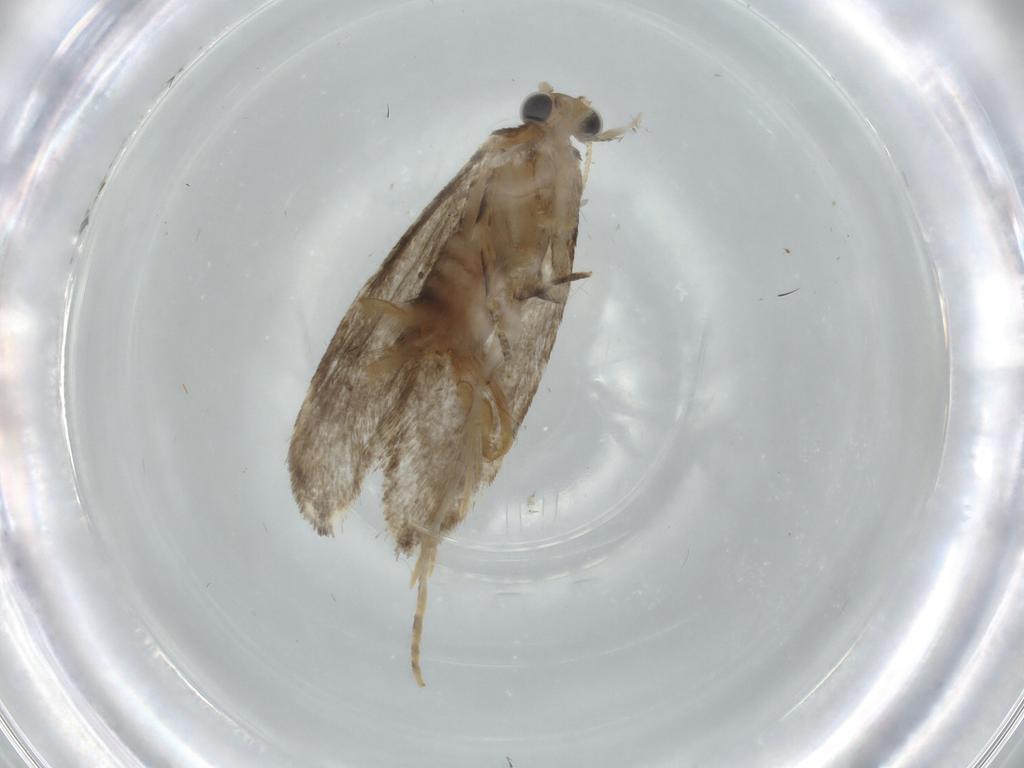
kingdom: Animalia
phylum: Arthropoda
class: Insecta
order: Lepidoptera
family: Tineidae
